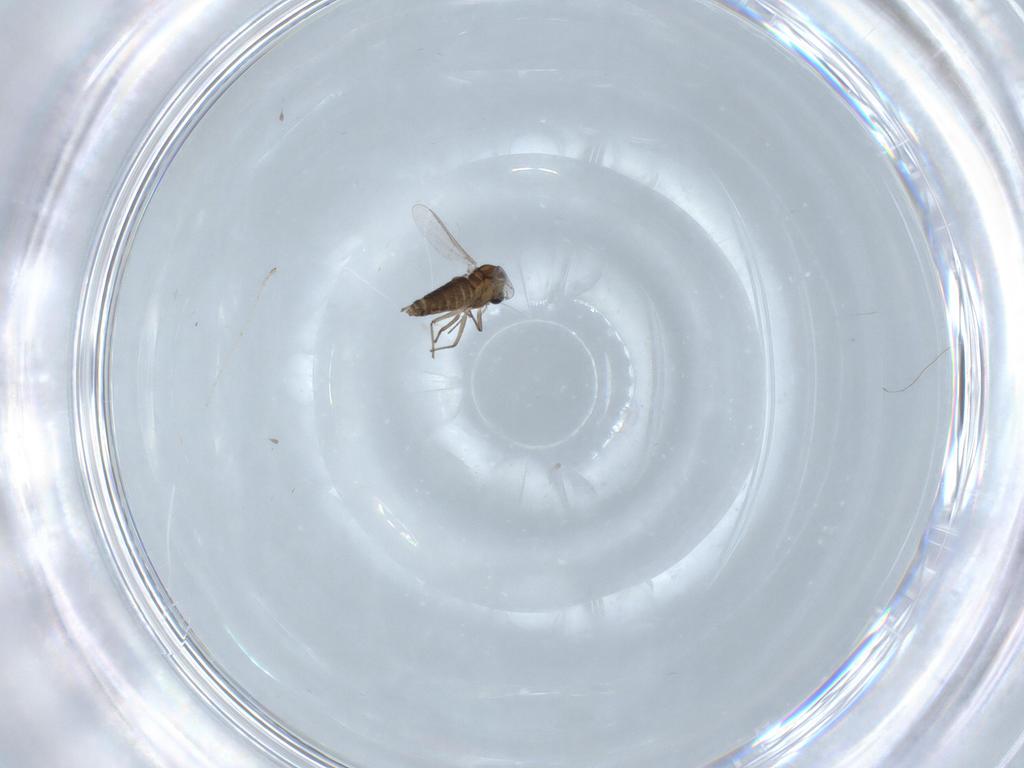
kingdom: Animalia
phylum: Arthropoda
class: Insecta
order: Diptera
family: Chironomidae
